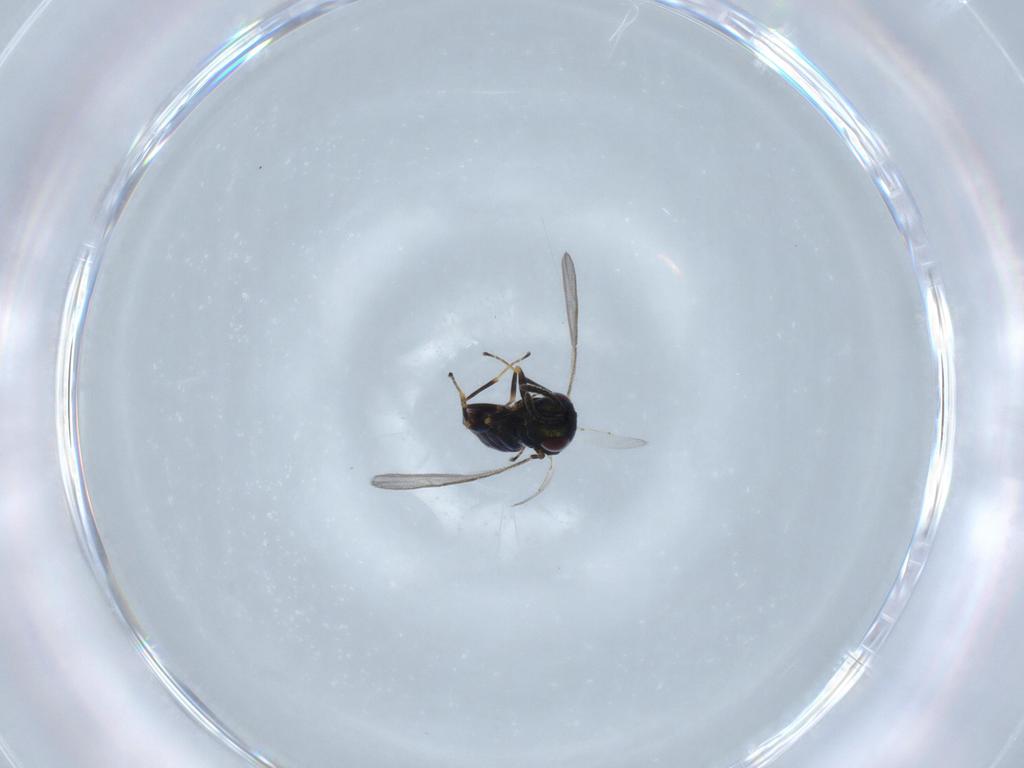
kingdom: Animalia
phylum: Arthropoda
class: Insecta
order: Hymenoptera
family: Pteromalidae
